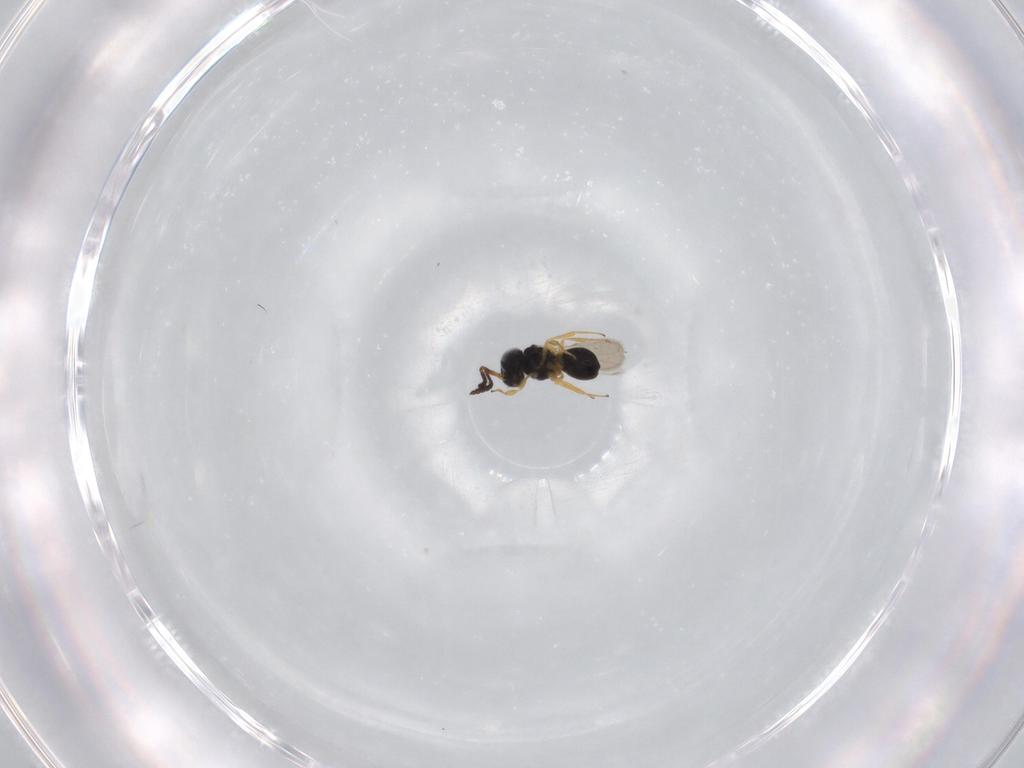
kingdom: Animalia
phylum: Arthropoda
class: Insecta
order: Hymenoptera
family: Scelionidae
